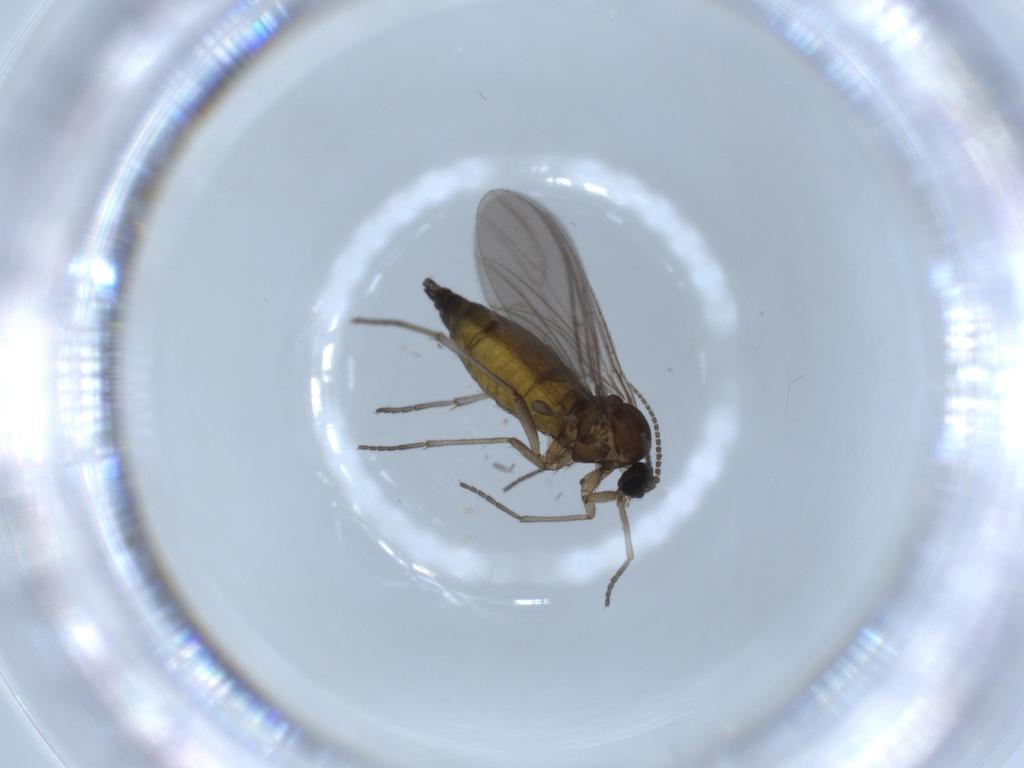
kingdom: Animalia
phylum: Arthropoda
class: Insecta
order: Diptera
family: Sciaridae
